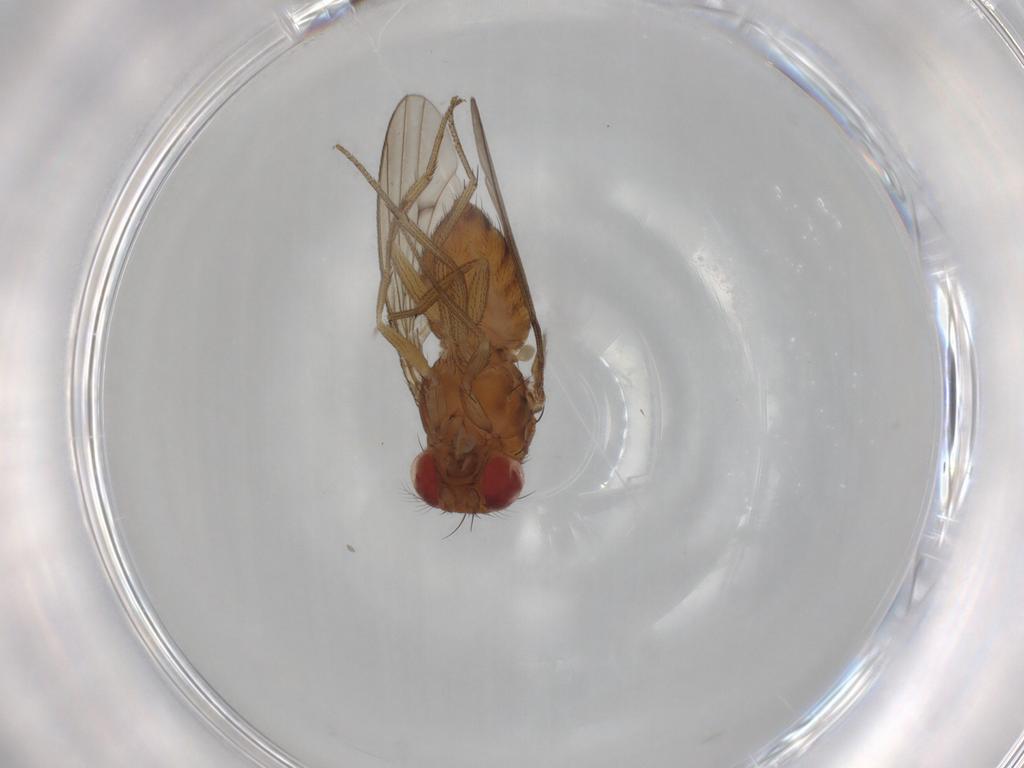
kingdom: Animalia
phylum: Arthropoda
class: Insecta
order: Diptera
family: Drosophilidae
